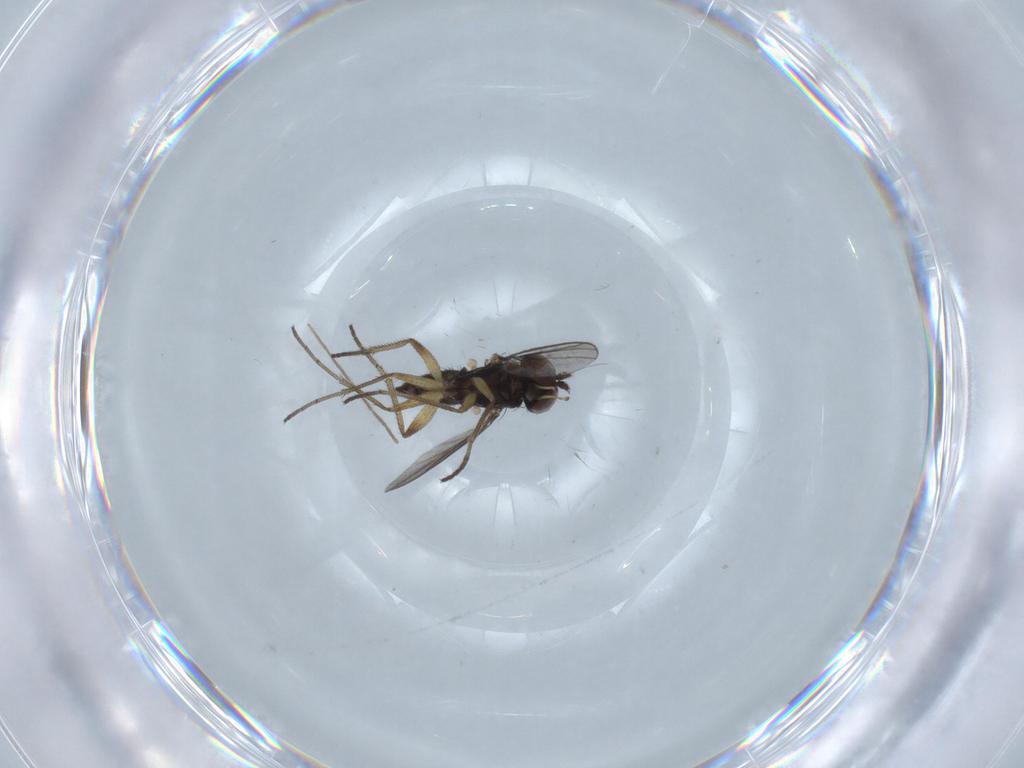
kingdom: Animalia
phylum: Arthropoda
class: Insecta
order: Diptera
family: Dolichopodidae
